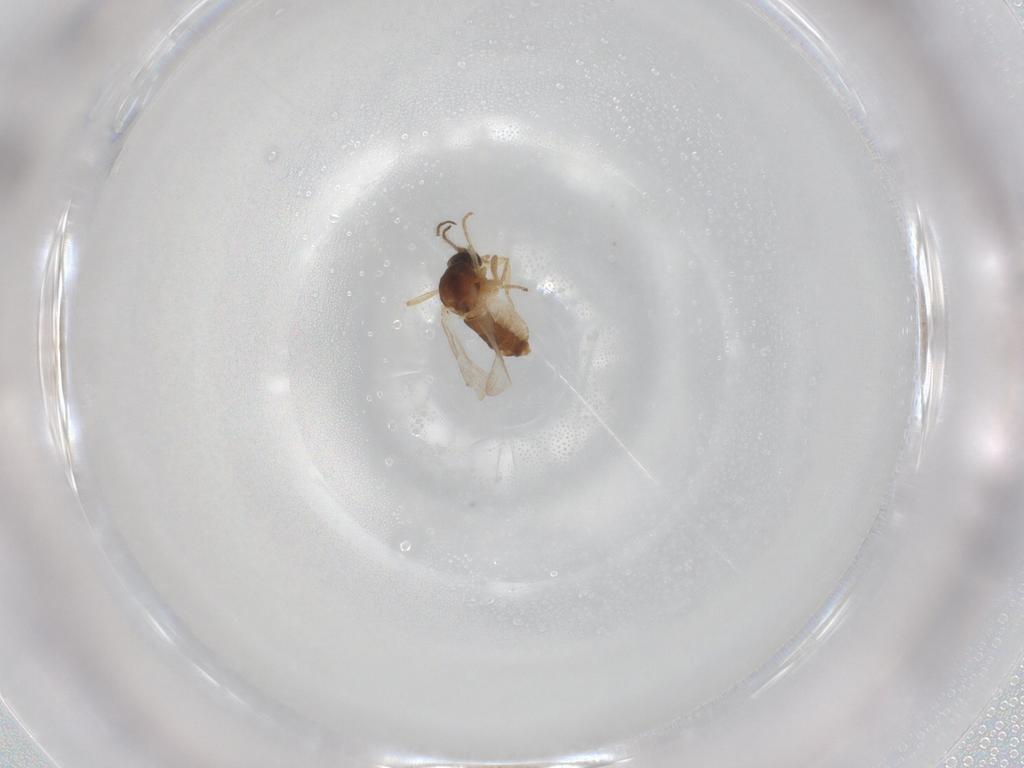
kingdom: Animalia
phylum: Arthropoda
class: Insecta
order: Diptera
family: Ceratopogonidae
